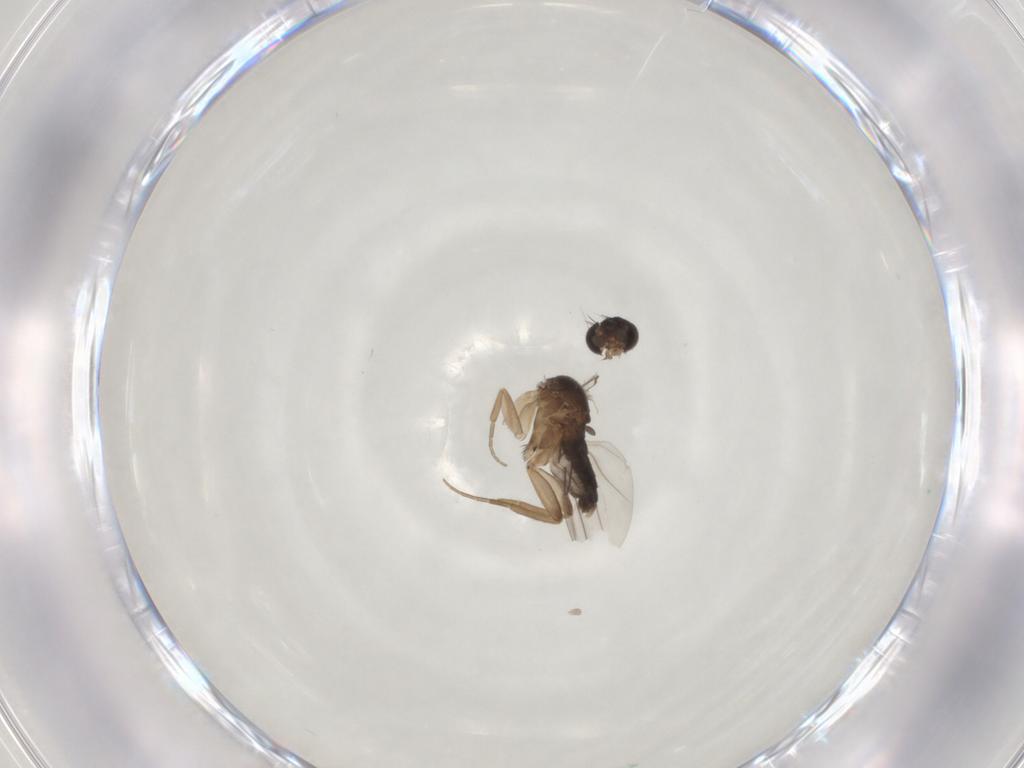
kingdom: Animalia
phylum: Arthropoda
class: Insecta
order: Diptera
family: Phoridae
